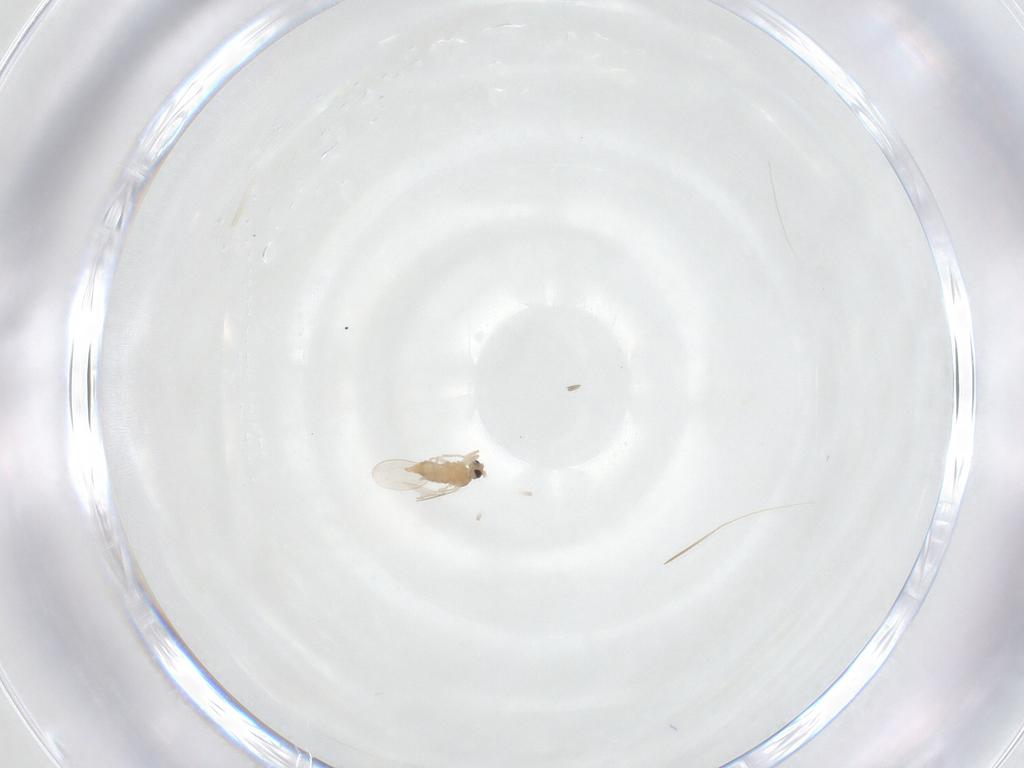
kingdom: Animalia
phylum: Arthropoda
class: Insecta
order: Diptera
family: Cecidomyiidae
